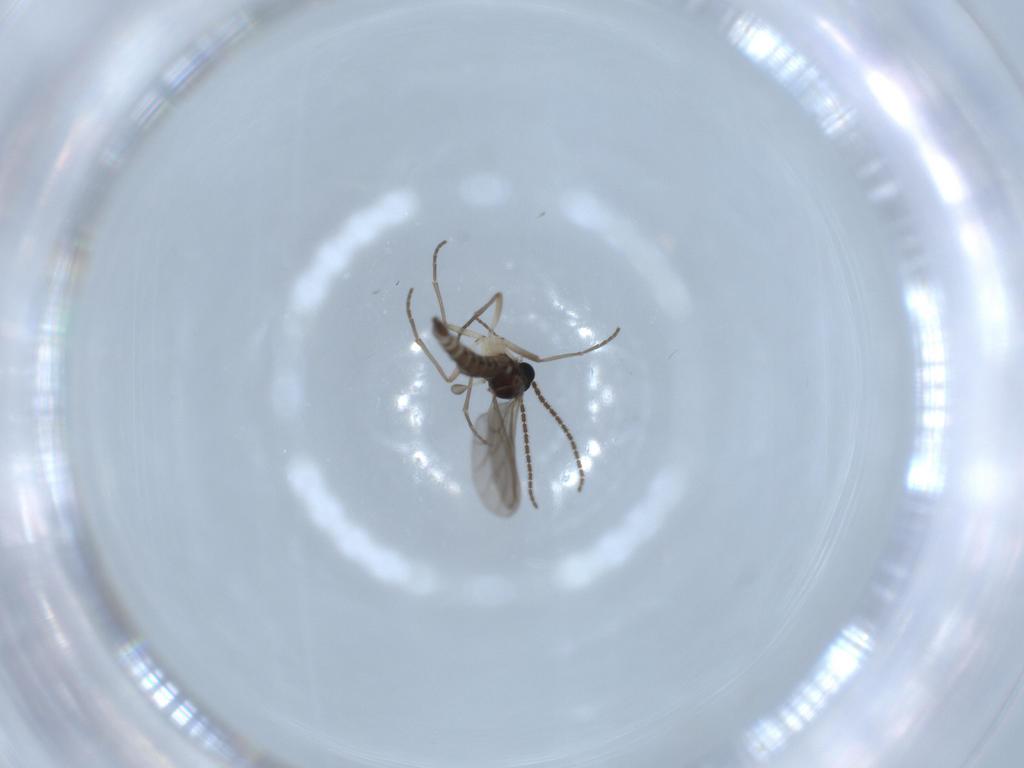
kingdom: Animalia
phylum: Arthropoda
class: Insecta
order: Diptera
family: Sciaridae
